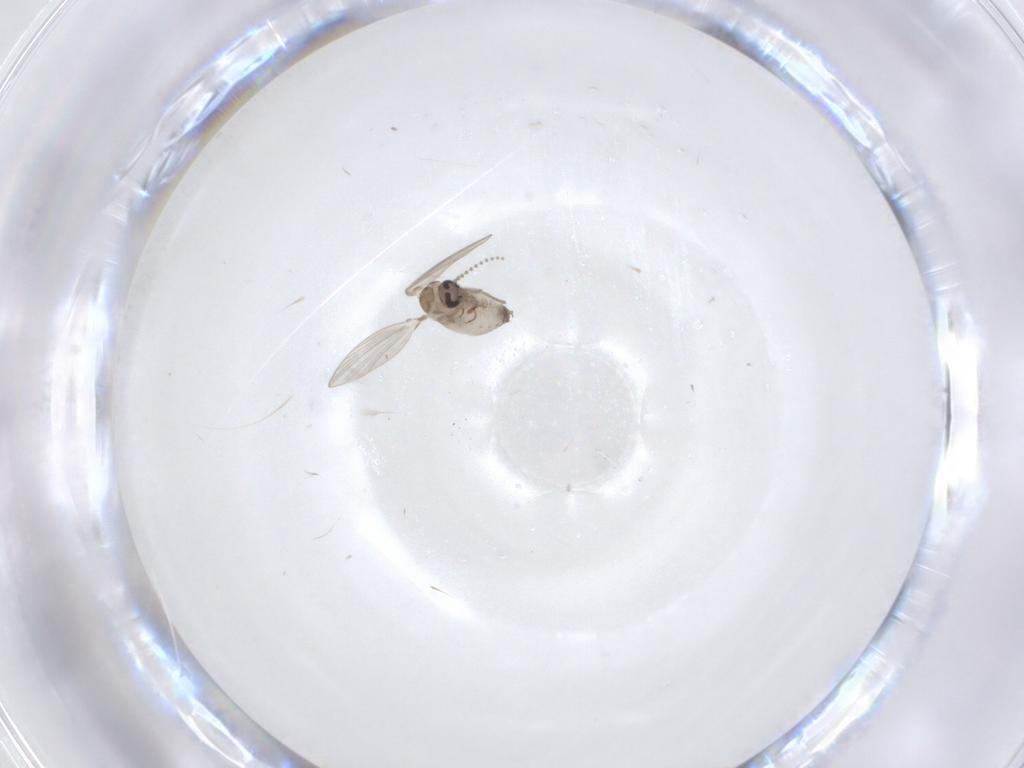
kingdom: Animalia
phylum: Arthropoda
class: Insecta
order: Diptera
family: Psychodidae
